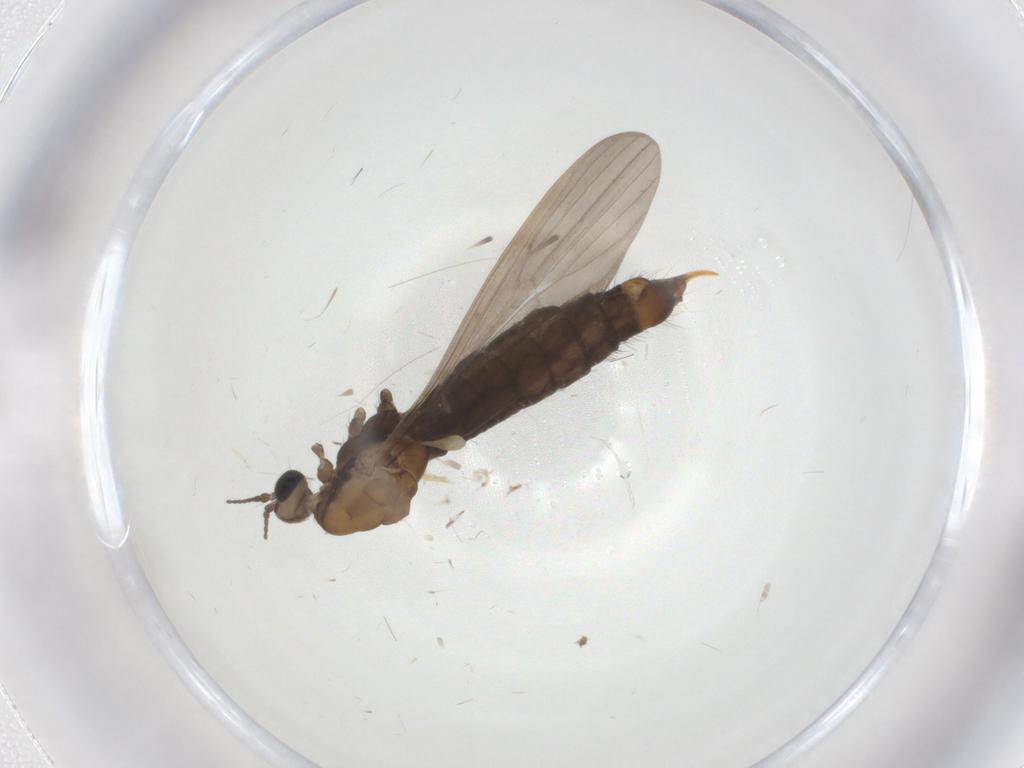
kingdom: Animalia
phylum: Arthropoda
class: Insecta
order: Diptera
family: Limoniidae
